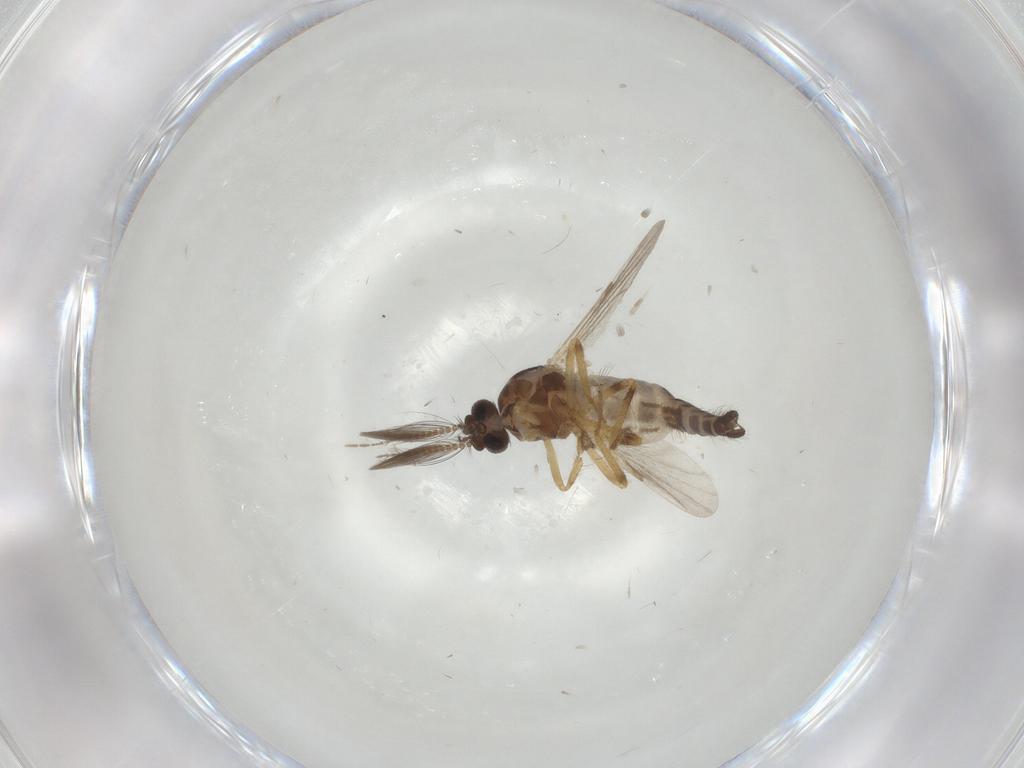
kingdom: Animalia
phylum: Arthropoda
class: Insecta
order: Diptera
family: Ceratopogonidae
